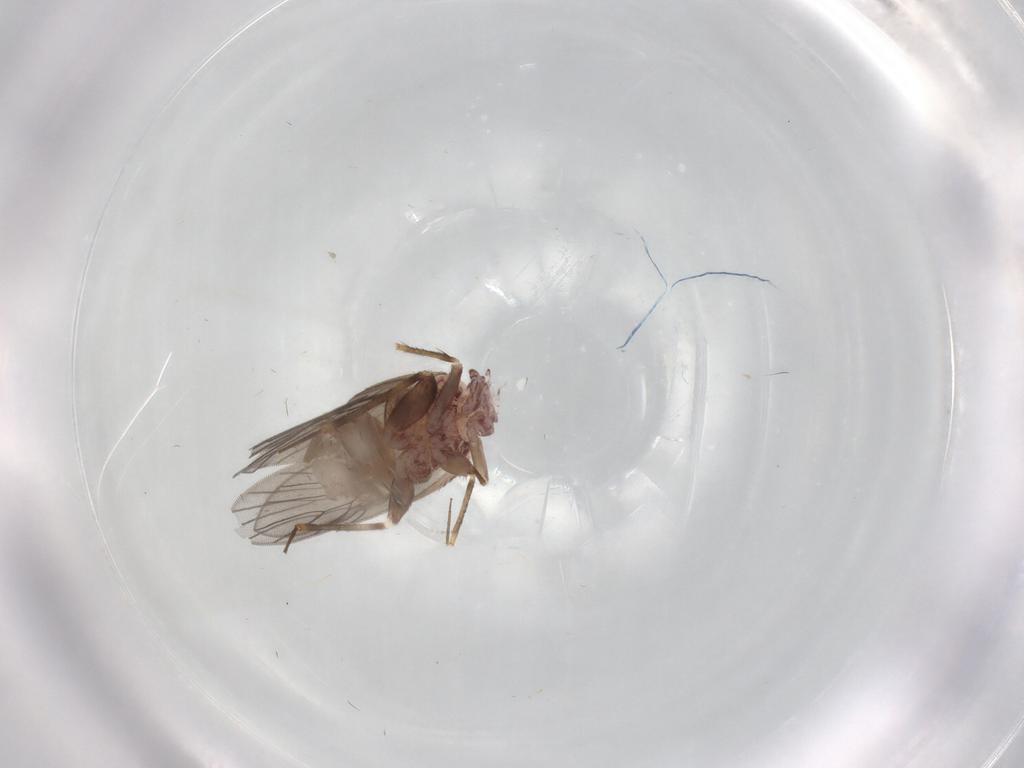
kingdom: Animalia
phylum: Arthropoda
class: Insecta
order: Psocodea
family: Lepidopsocidae
